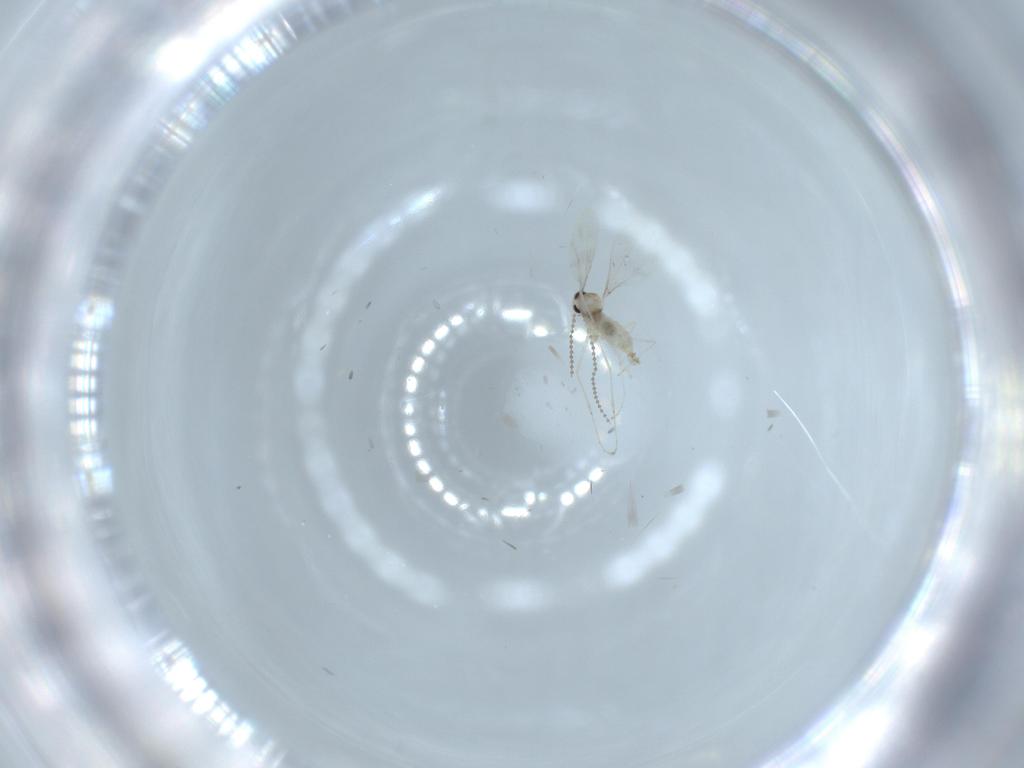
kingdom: Animalia
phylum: Arthropoda
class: Insecta
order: Diptera
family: Cecidomyiidae
